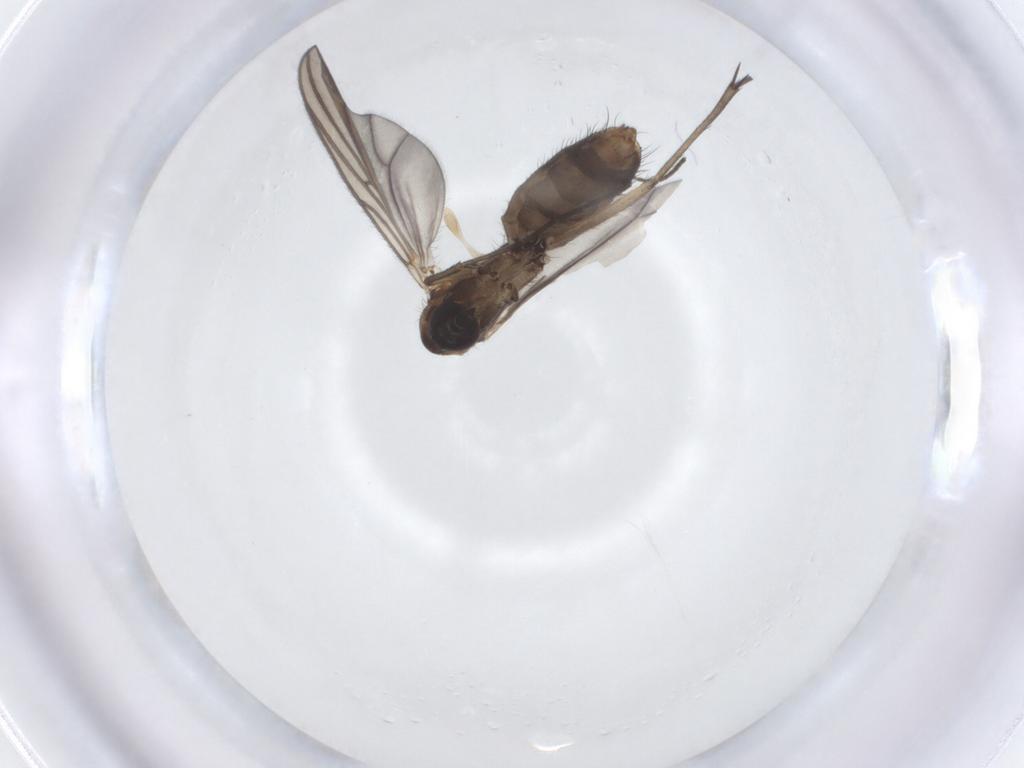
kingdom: Animalia
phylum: Arthropoda
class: Insecta
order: Diptera
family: Mycetophilidae
